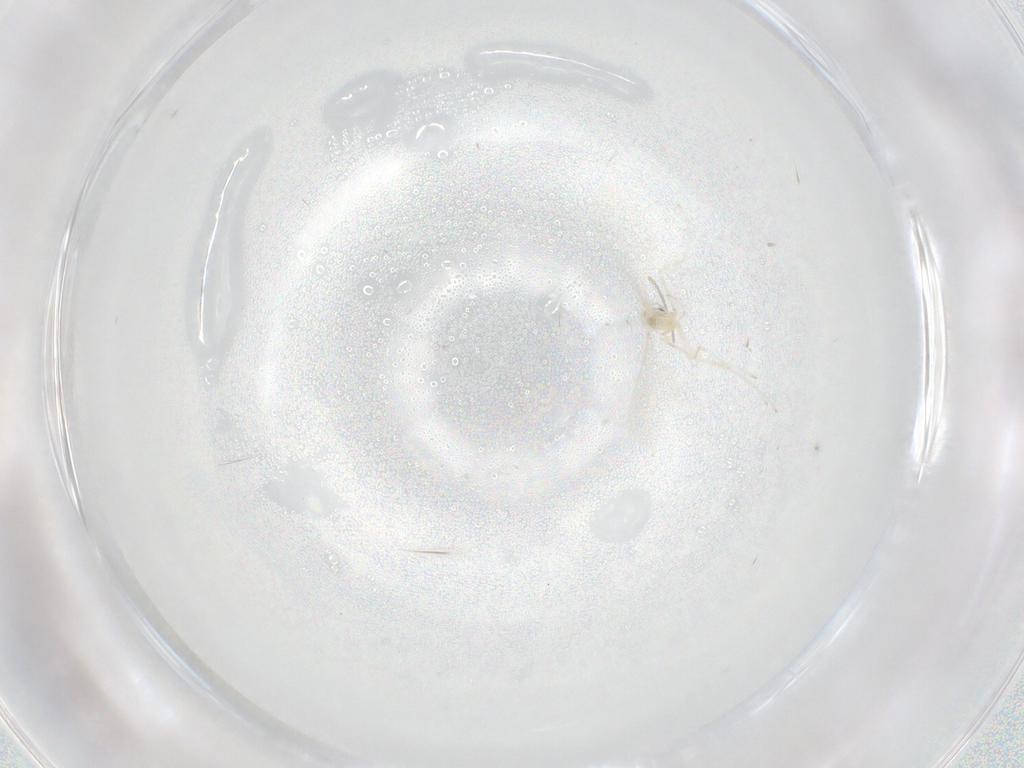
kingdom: Animalia
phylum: Arthropoda
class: Insecta
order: Diptera
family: Cecidomyiidae
